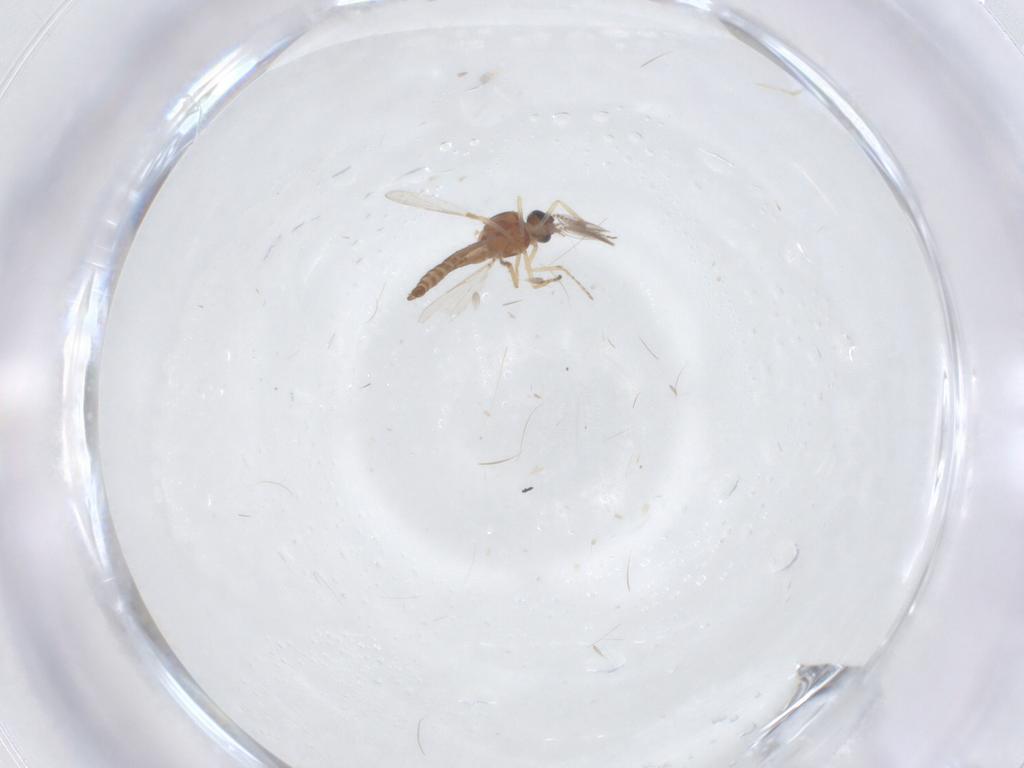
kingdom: Animalia
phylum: Arthropoda
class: Insecta
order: Diptera
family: Ceratopogonidae
